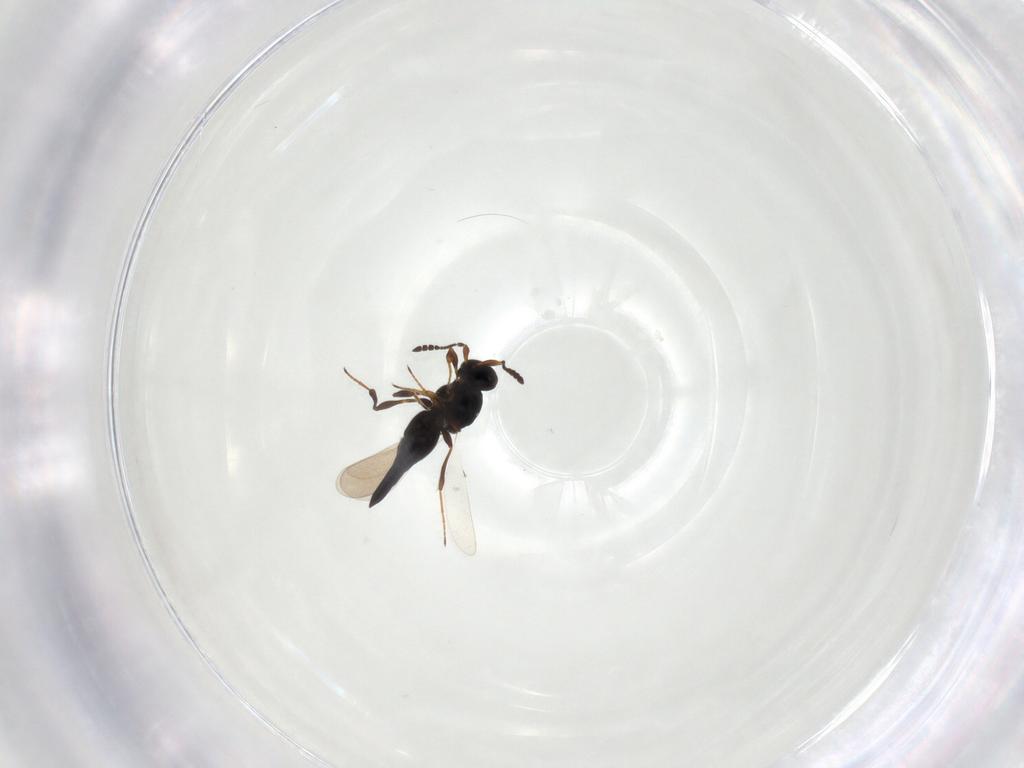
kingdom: Animalia
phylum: Arthropoda
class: Insecta
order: Hymenoptera
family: Platygastridae
